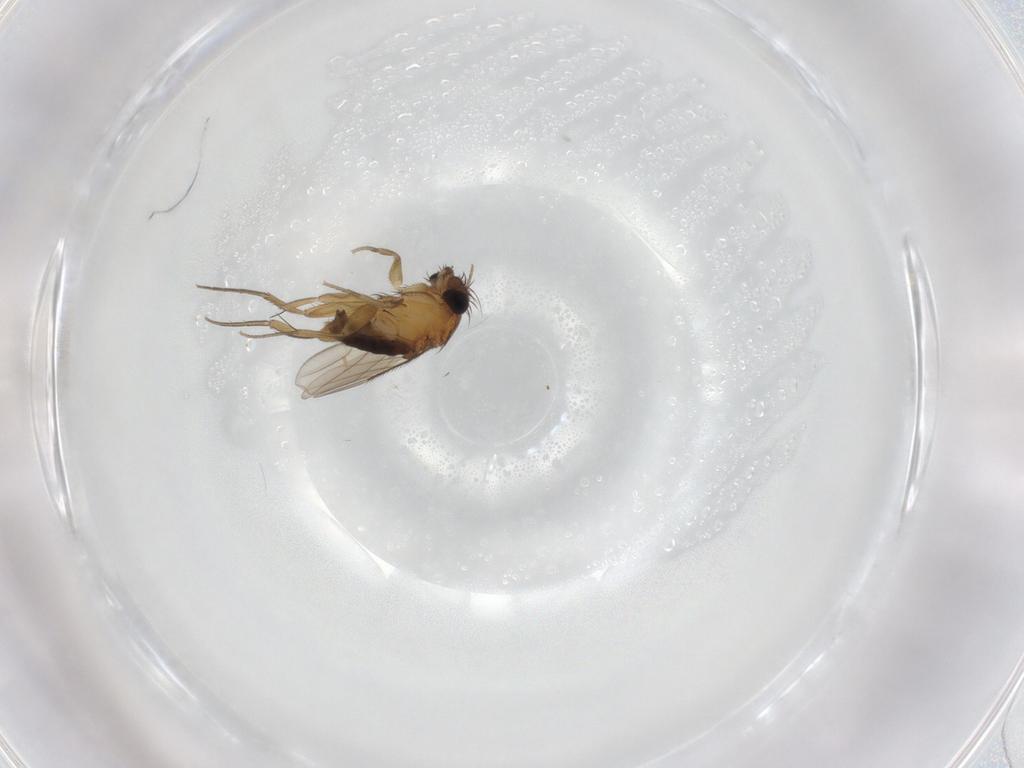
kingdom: Animalia
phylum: Arthropoda
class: Insecta
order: Diptera
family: Phoridae
